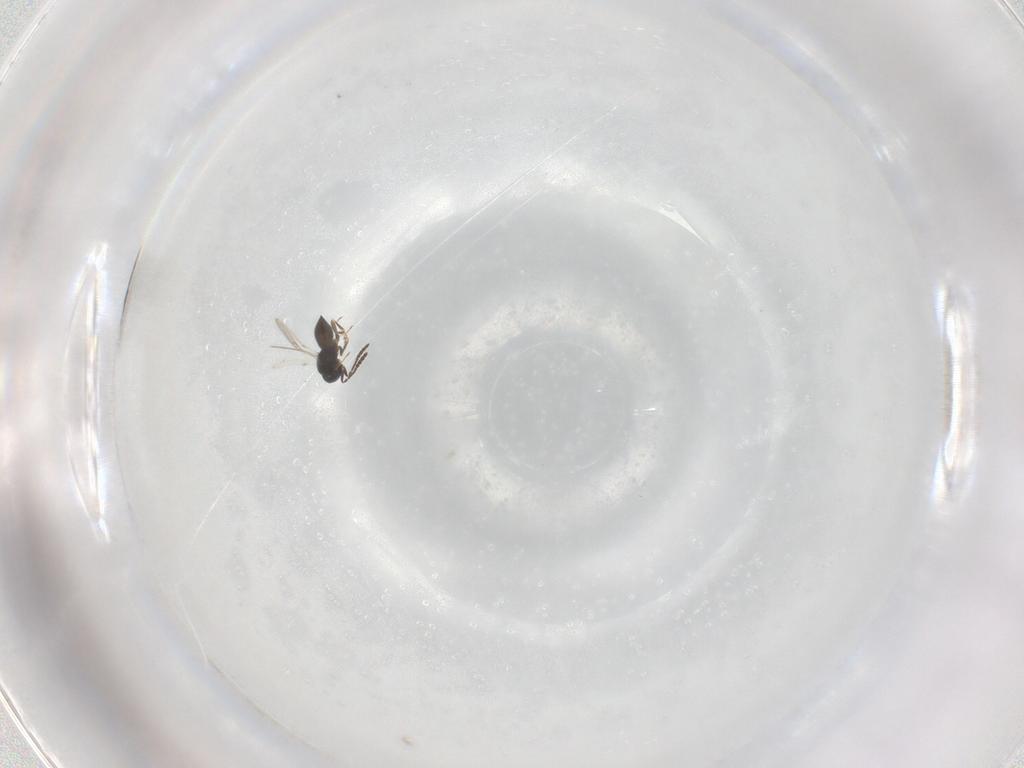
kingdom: Animalia
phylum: Arthropoda
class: Insecta
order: Hymenoptera
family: Scelionidae
